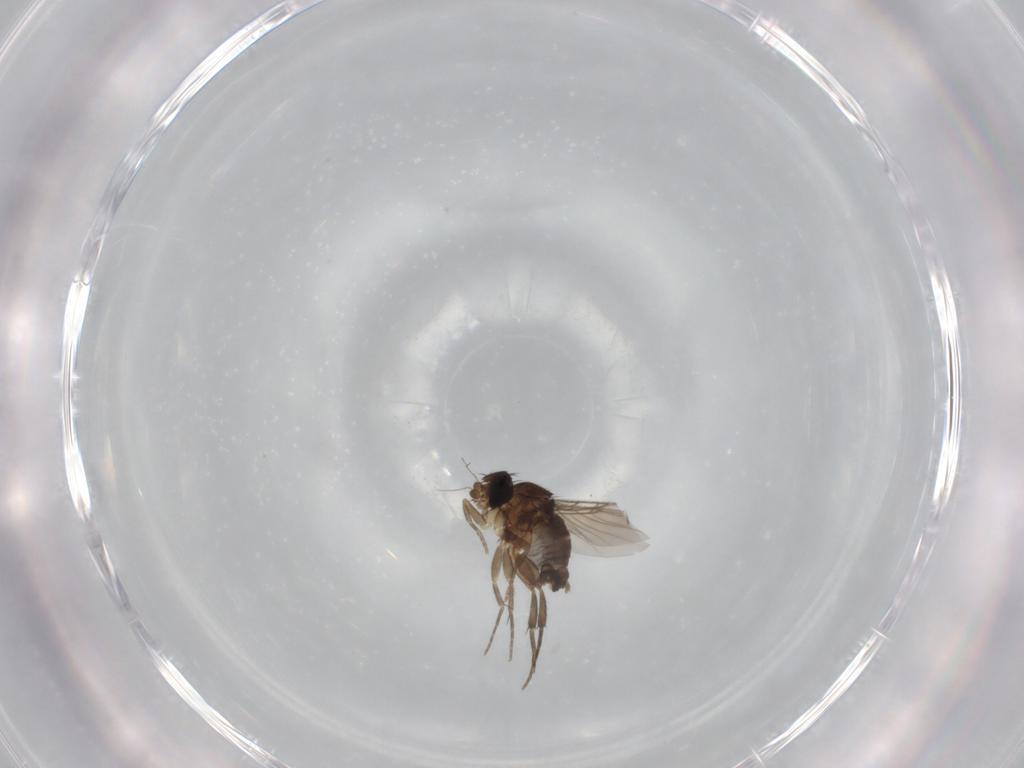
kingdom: Animalia
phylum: Arthropoda
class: Insecta
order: Diptera
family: Phoridae
